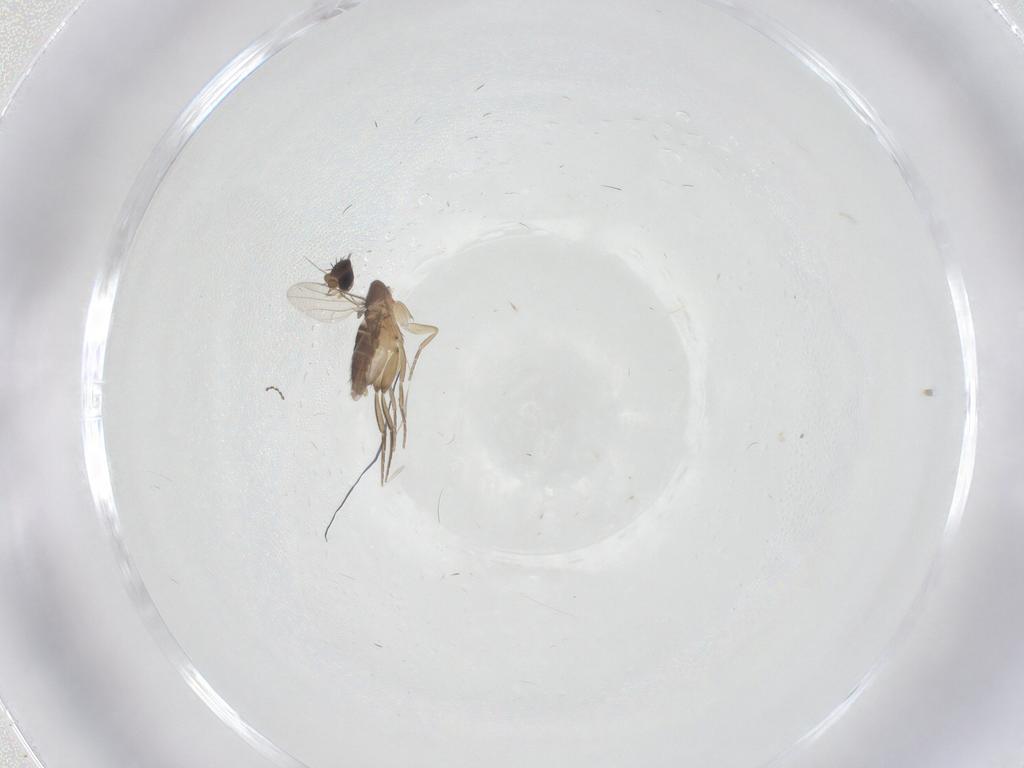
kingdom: Animalia
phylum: Arthropoda
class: Insecta
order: Diptera
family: Phoridae
